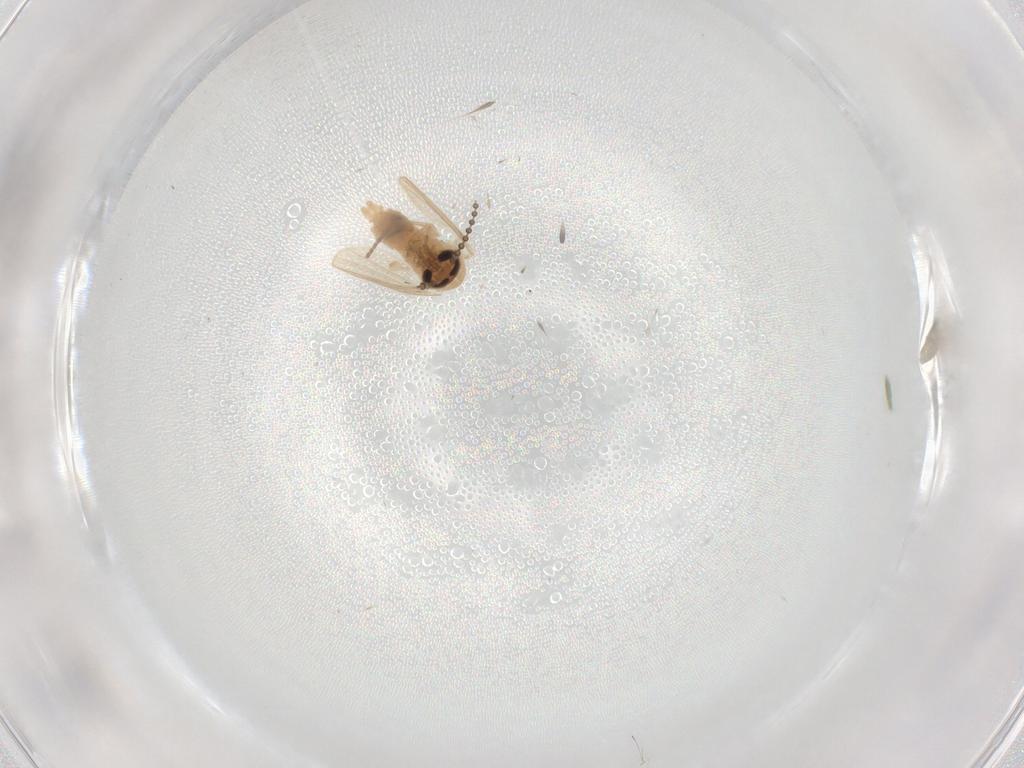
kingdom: Animalia
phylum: Arthropoda
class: Insecta
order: Diptera
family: Mycetophilidae
